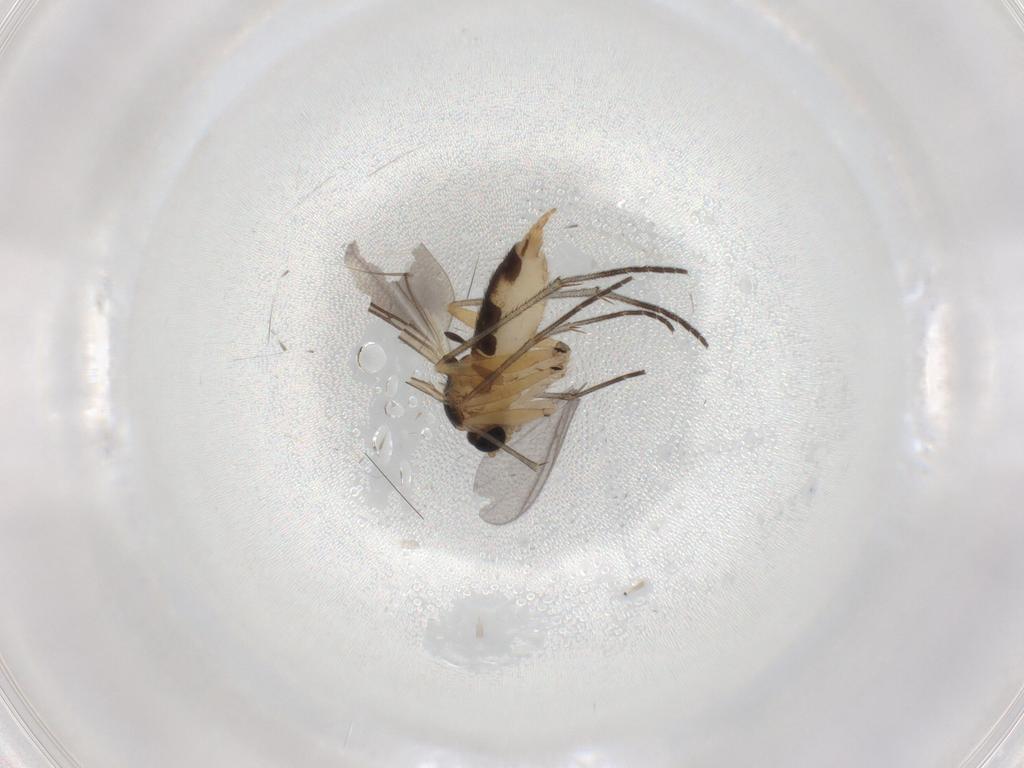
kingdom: Animalia
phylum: Arthropoda
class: Insecta
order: Diptera
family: Sciaridae
